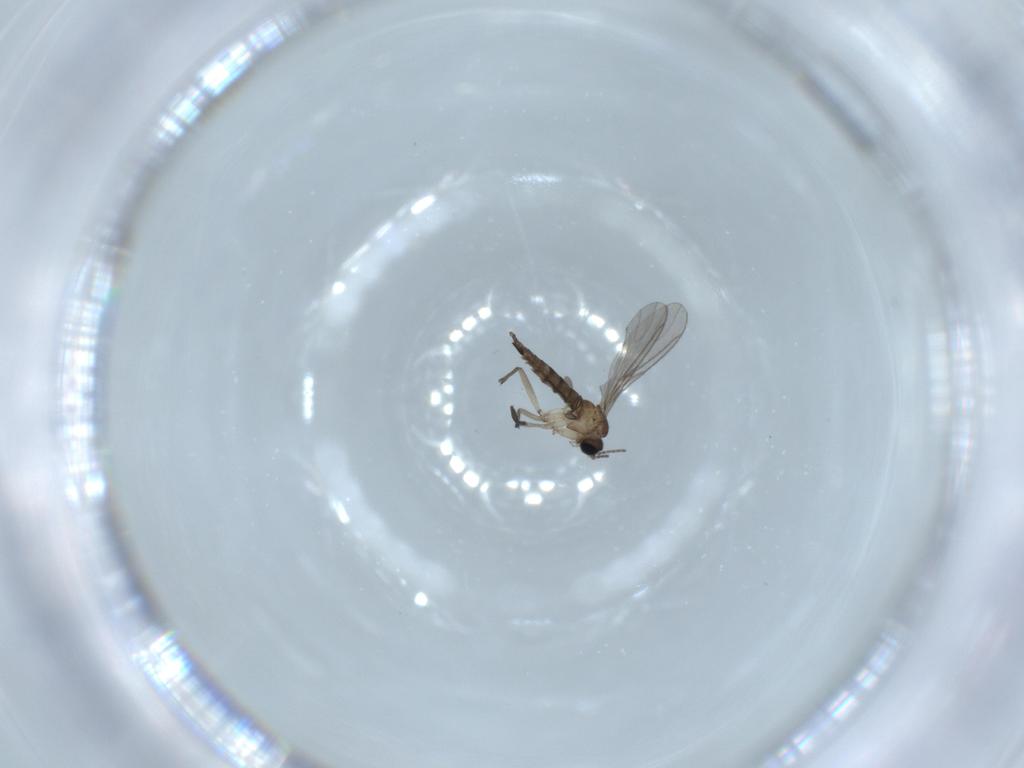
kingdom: Animalia
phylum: Arthropoda
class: Insecta
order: Diptera
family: Sciaridae
